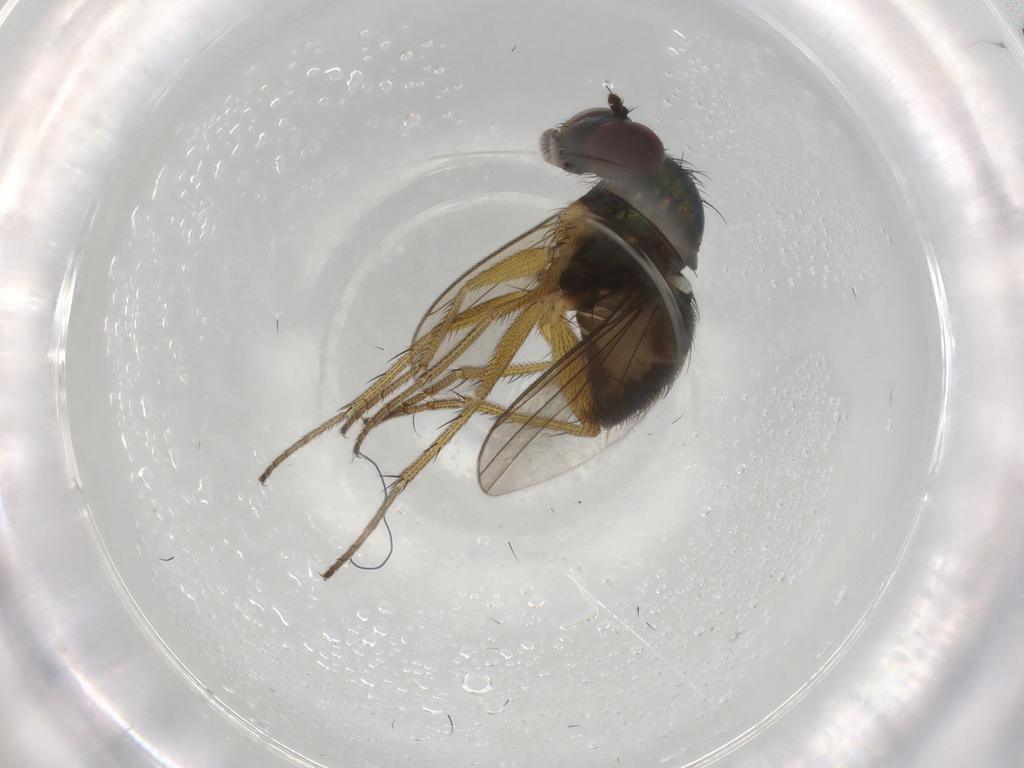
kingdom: Animalia
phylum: Arthropoda
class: Insecta
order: Diptera
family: Dolichopodidae
